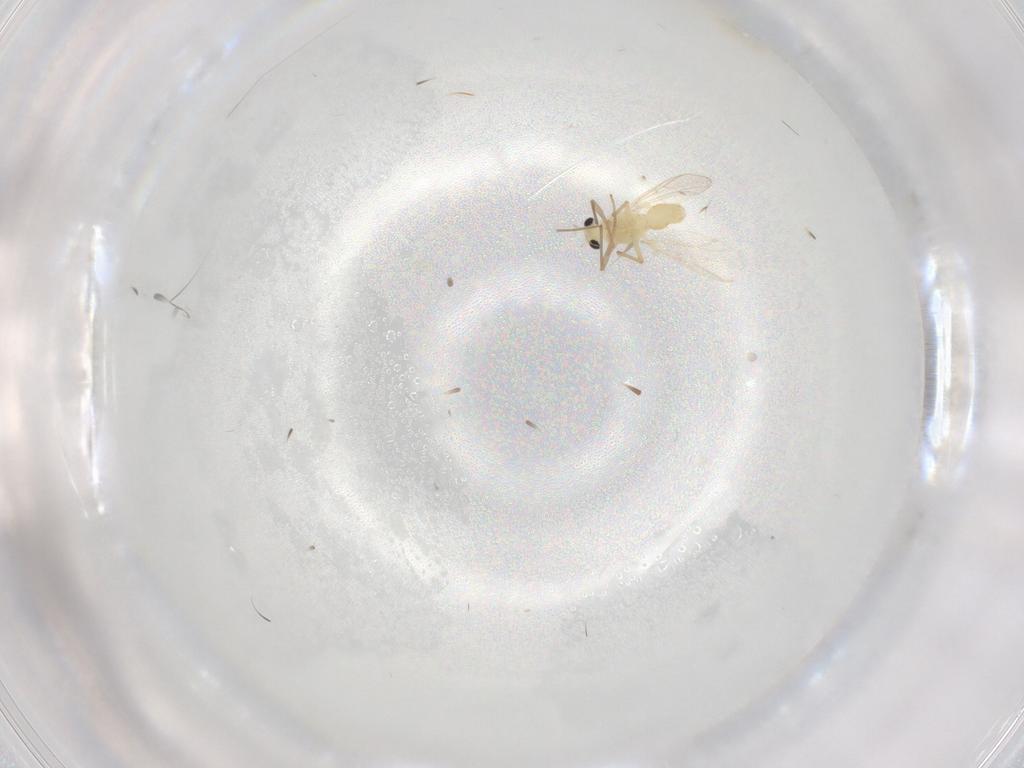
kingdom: Animalia
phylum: Arthropoda
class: Insecta
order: Diptera
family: Chironomidae
